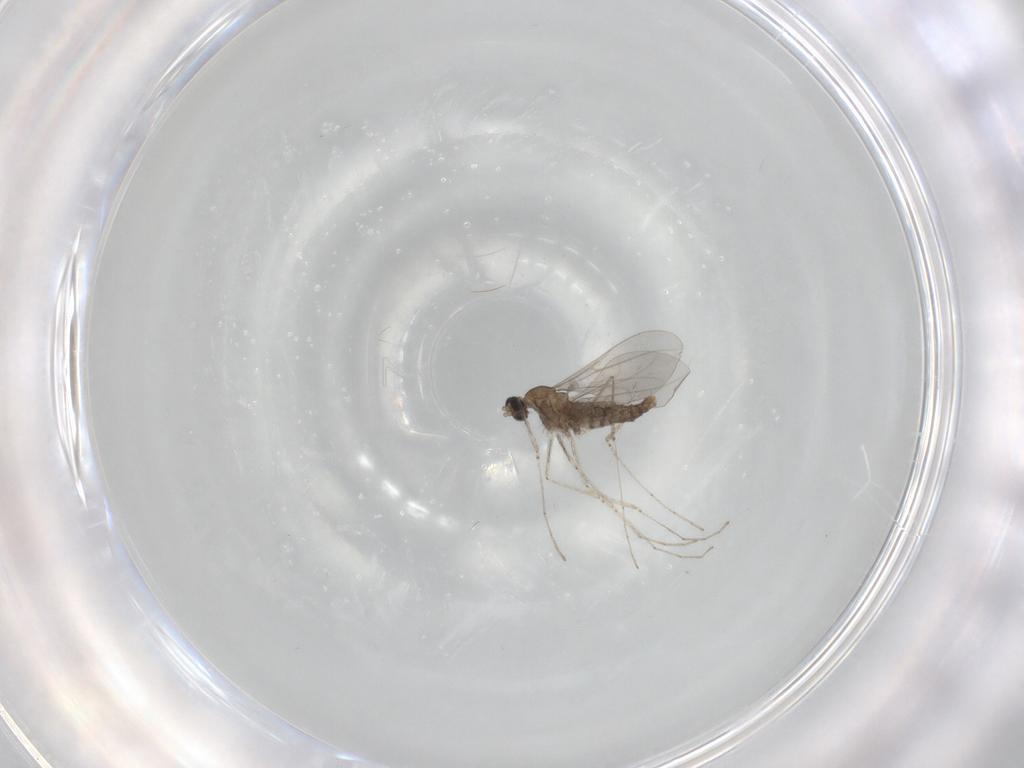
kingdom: Animalia
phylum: Arthropoda
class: Insecta
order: Diptera
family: Cecidomyiidae
